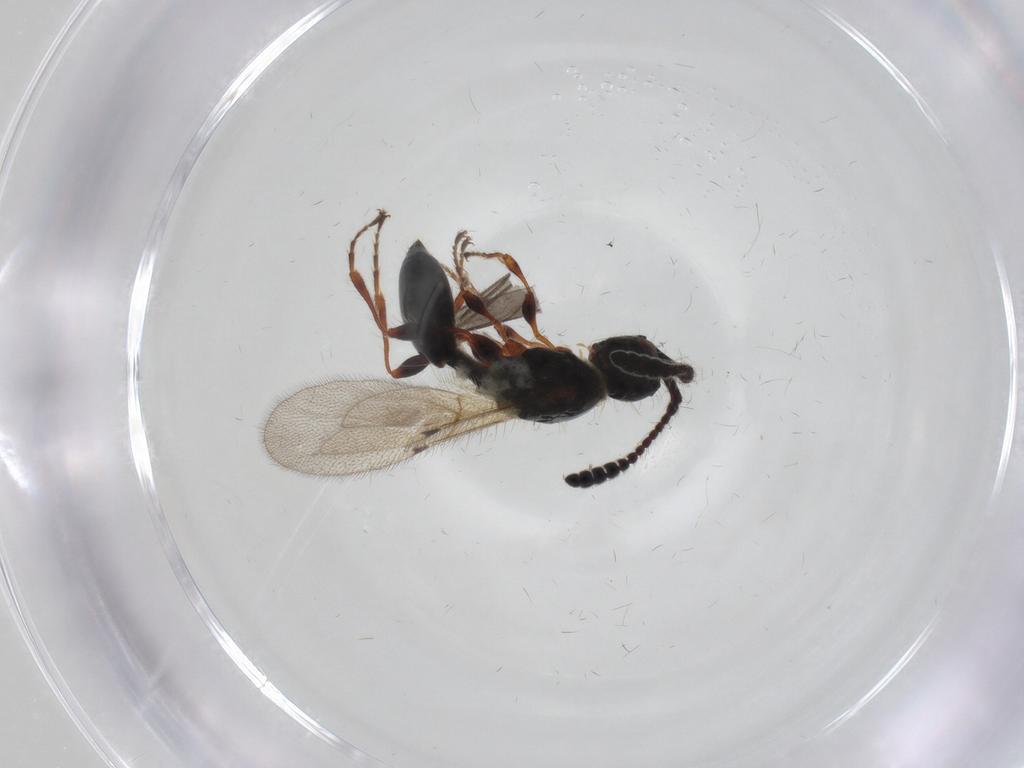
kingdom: Animalia
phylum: Arthropoda
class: Insecta
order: Hymenoptera
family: Diapriidae
